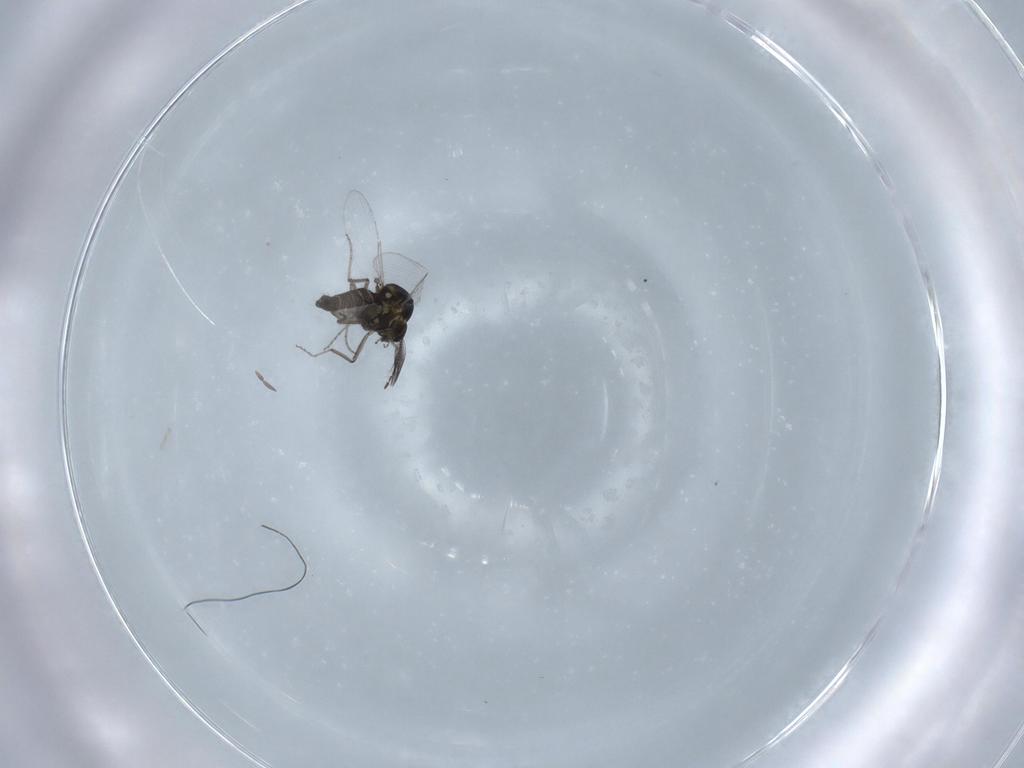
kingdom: Animalia
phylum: Arthropoda
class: Insecta
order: Diptera
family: Ceratopogonidae
